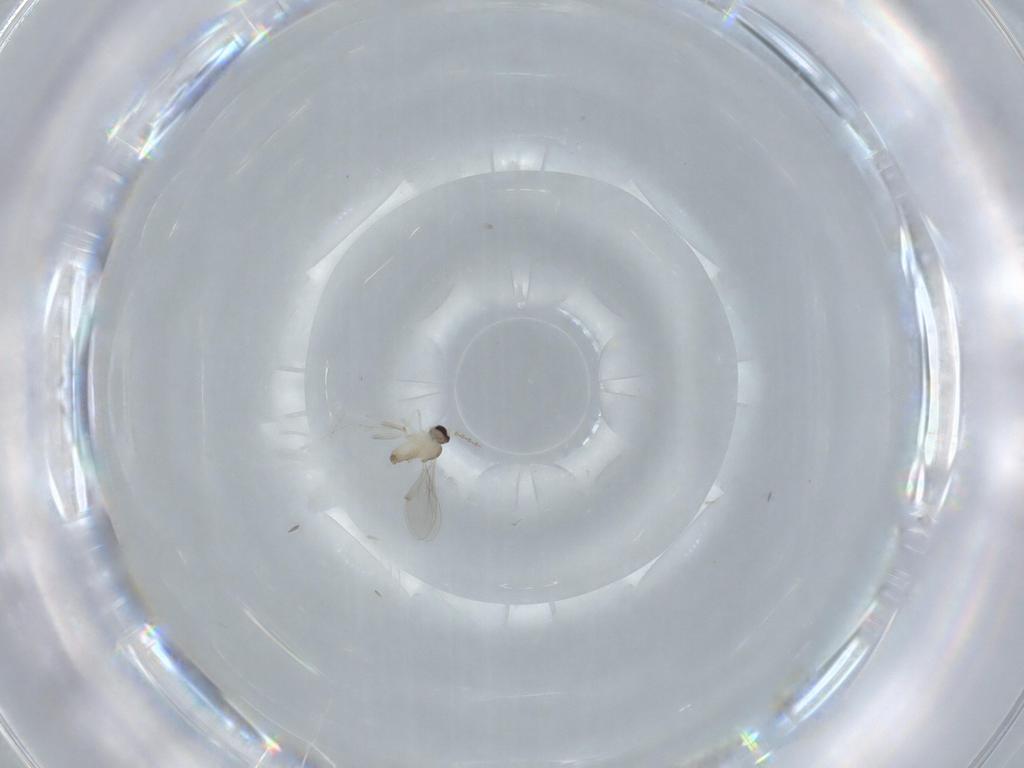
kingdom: Animalia
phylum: Arthropoda
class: Insecta
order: Diptera
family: Cecidomyiidae
